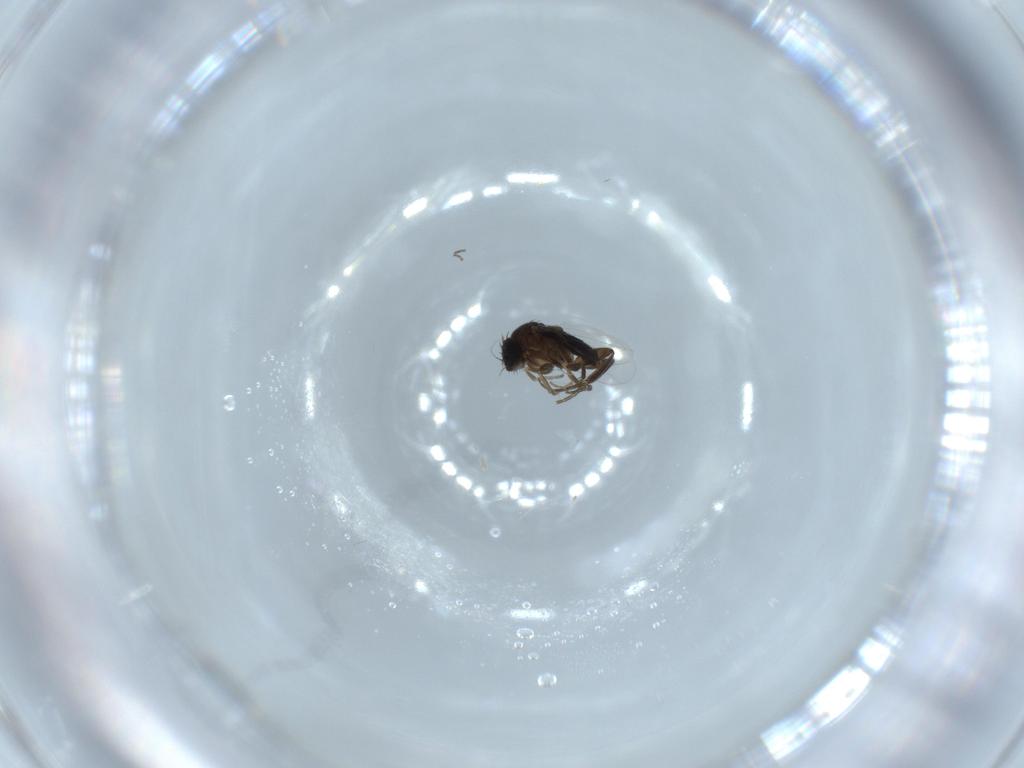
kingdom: Animalia
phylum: Arthropoda
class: Insecta
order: Diptera
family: Phoridae
